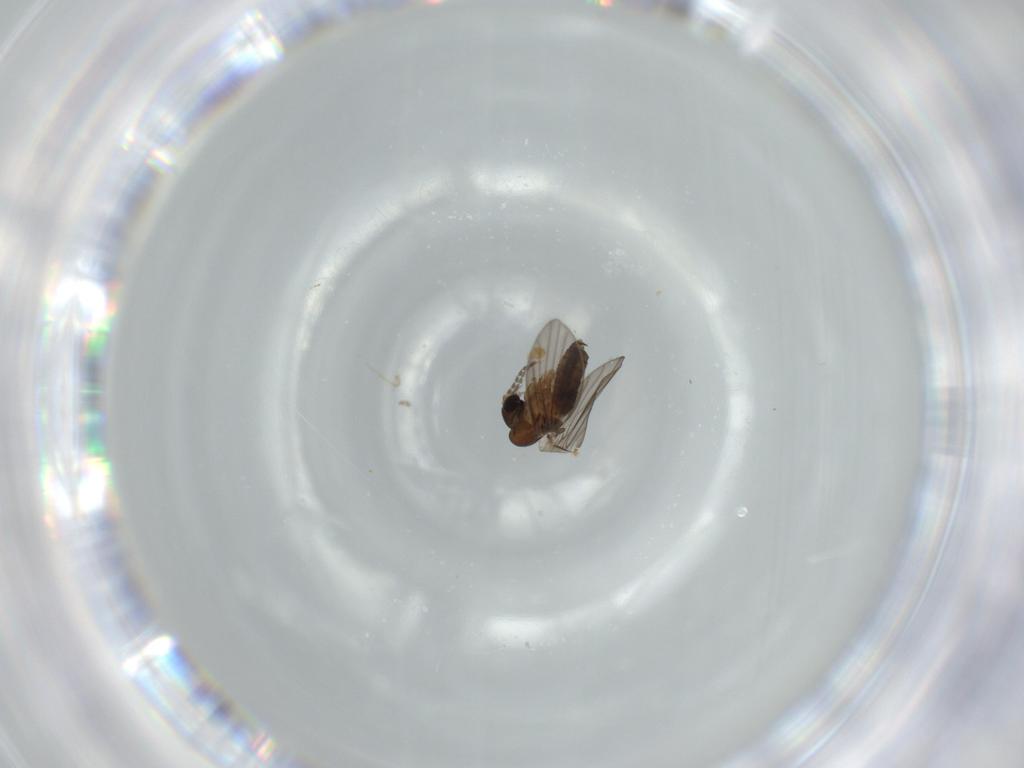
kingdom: Animalia
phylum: Arthropoda
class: Insecta
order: Diptera
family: Psychodidae
